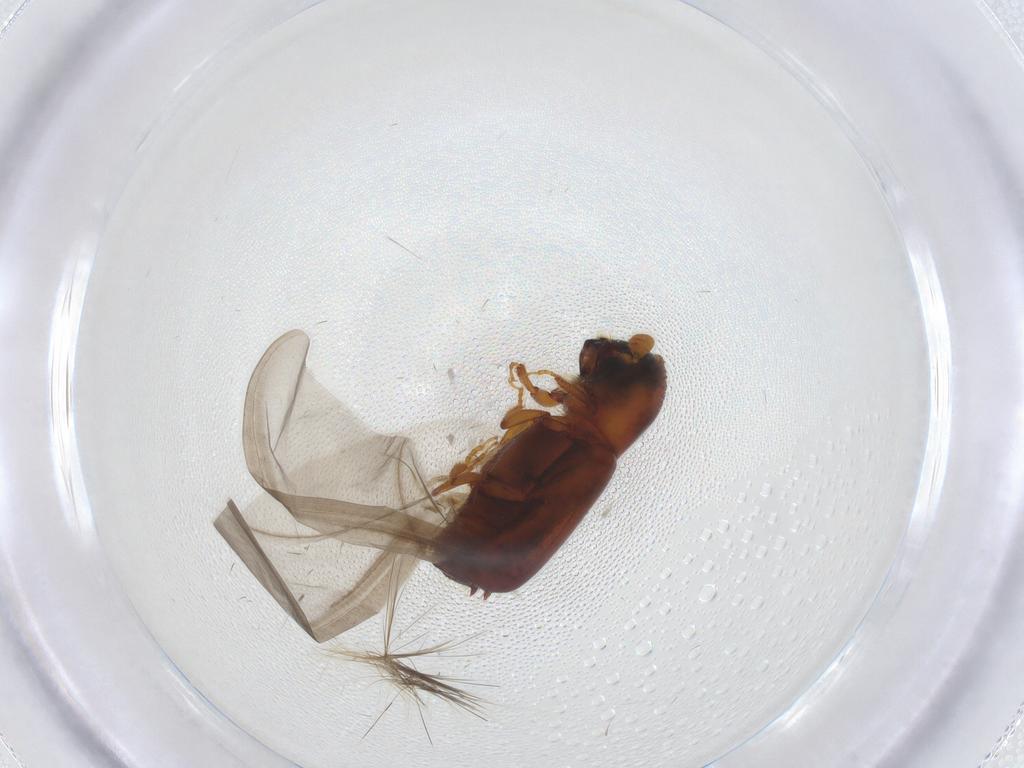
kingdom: Animalia
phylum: Arthropoda
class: Insecta
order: Coleoptera
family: Curculionidae
